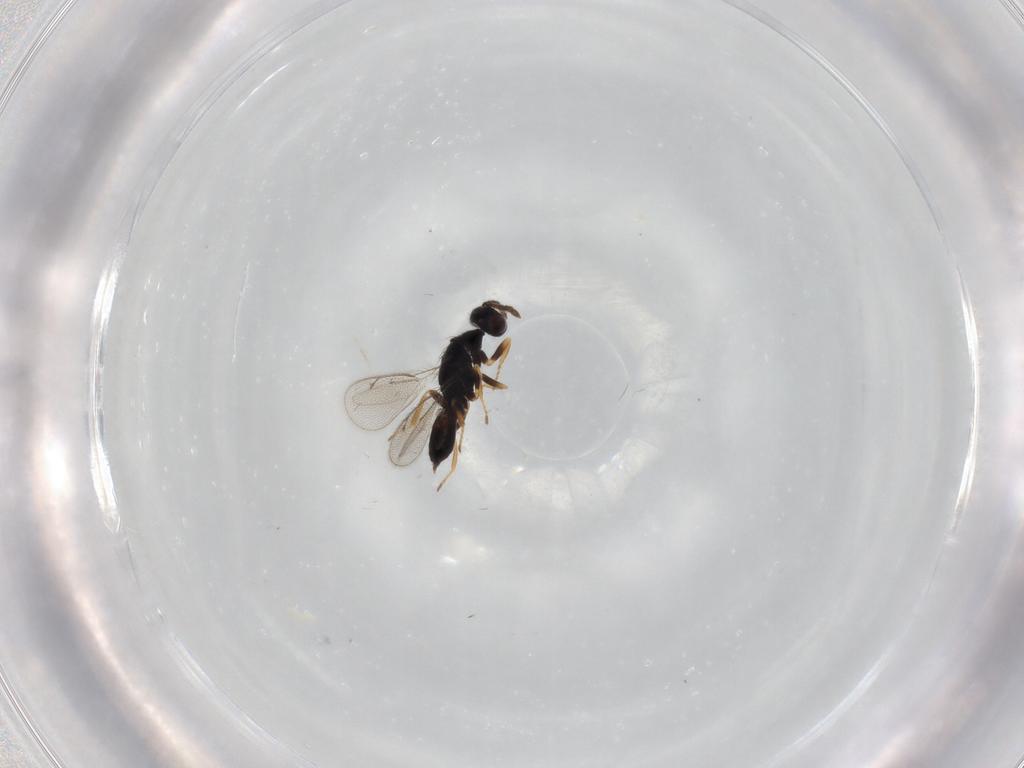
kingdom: Animalia
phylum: Arthropoda
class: Insecta
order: Hymenoptera
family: Eulophidae
